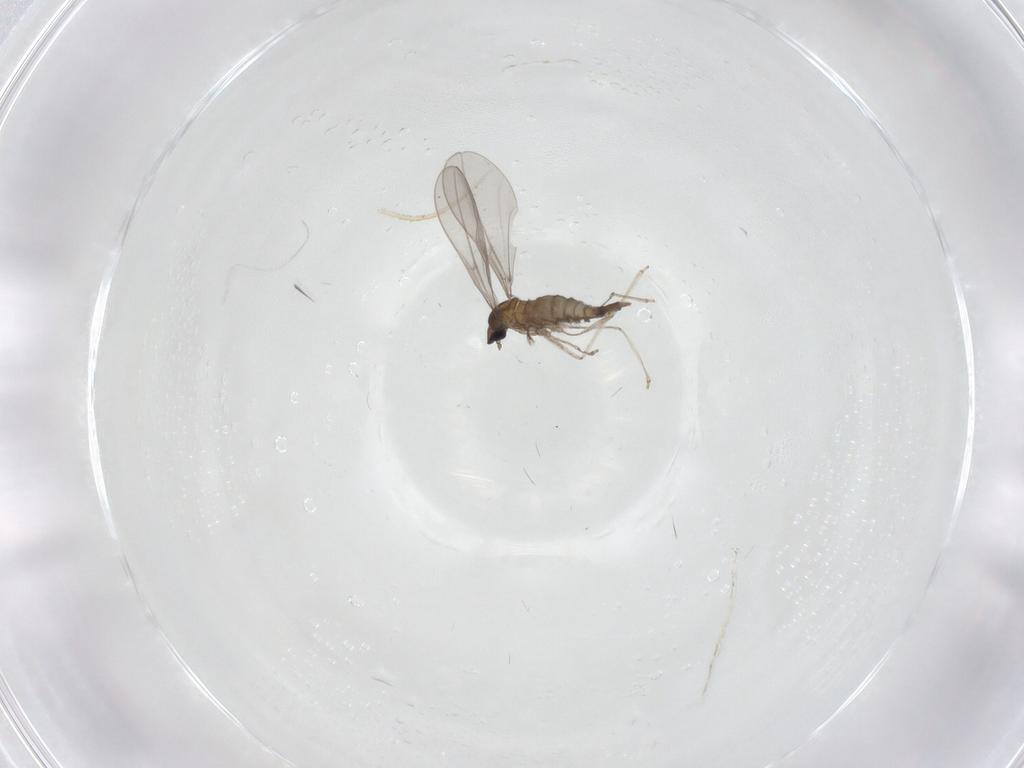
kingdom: Animalia
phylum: Arthropoda
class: Insecta
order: Diptera
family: Cecidomyiidae
